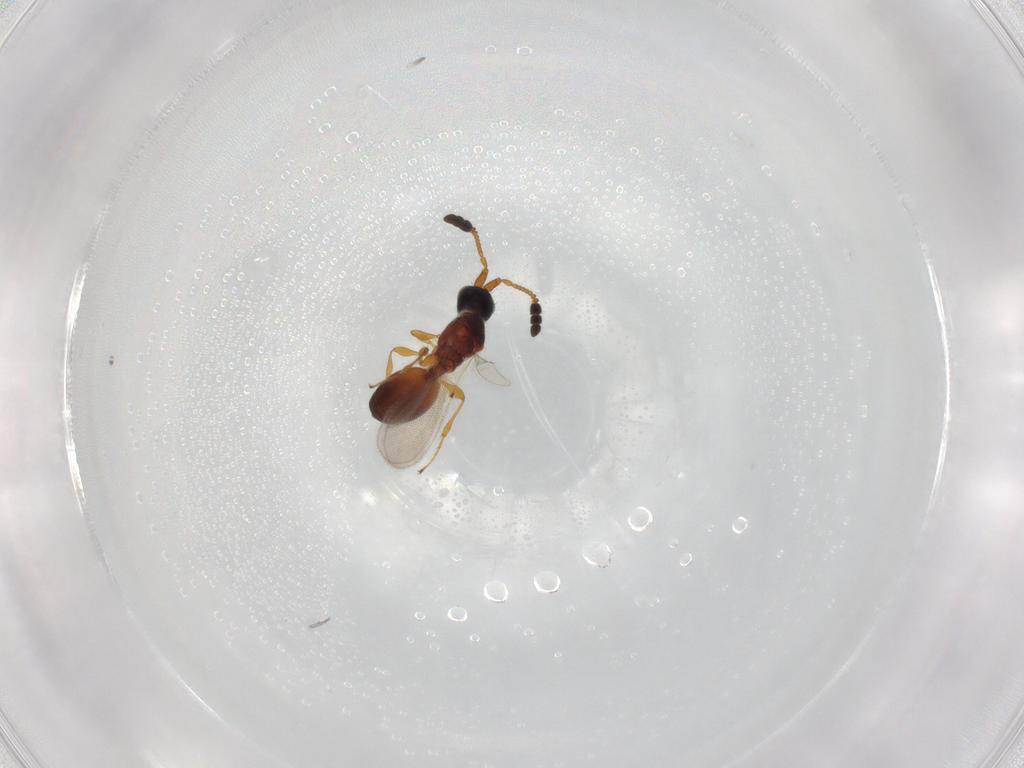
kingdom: Animalia
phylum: Arthropoda
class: Insecta
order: Hymenoptera
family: Diapriidae
